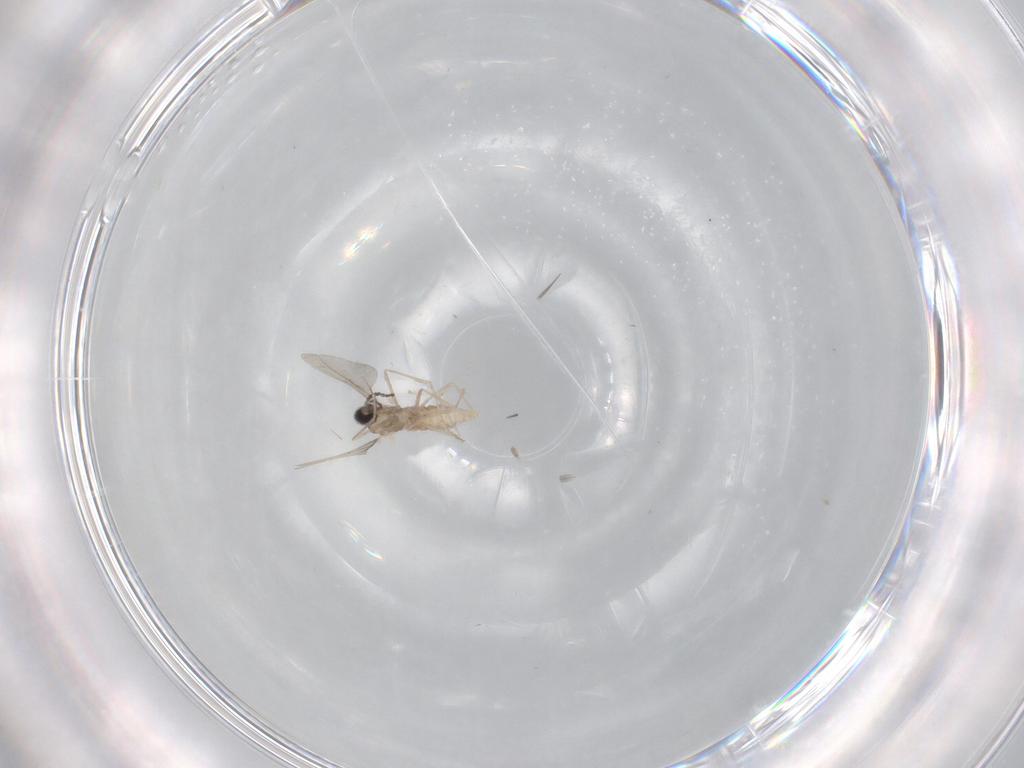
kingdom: Animalia
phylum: Arthropoda
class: Insecta
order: Diptera
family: Cecidomyiidae
